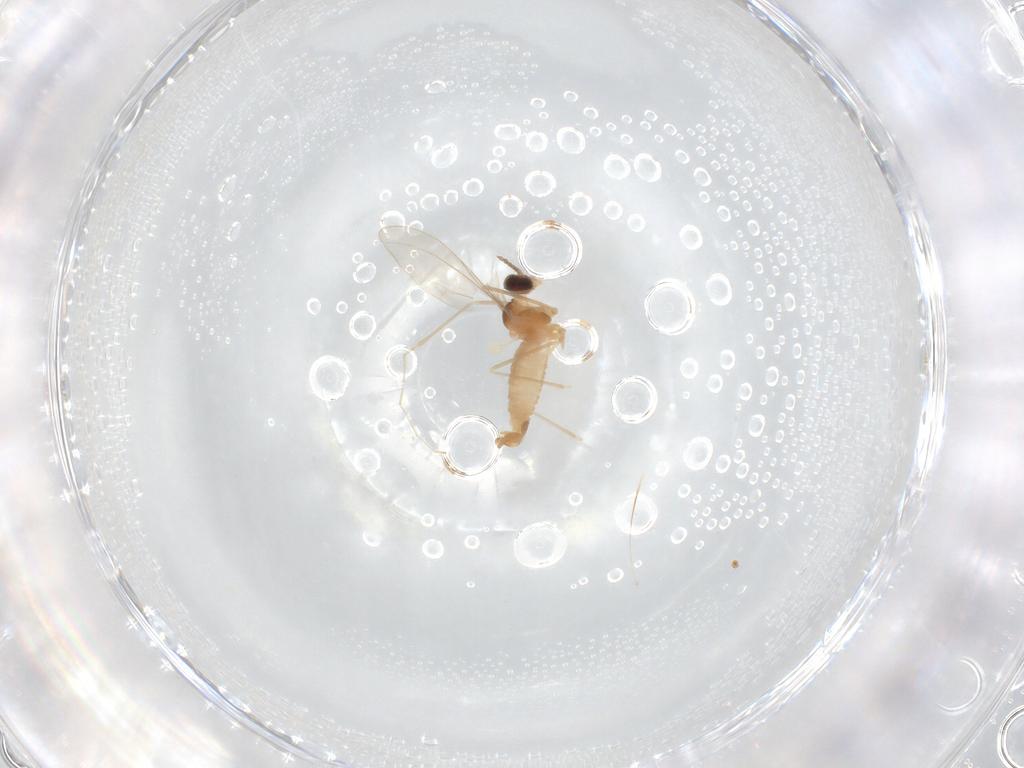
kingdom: Animalia
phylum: Arthropoda
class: Insecta
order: Diptera
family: Cecidomyiidae
